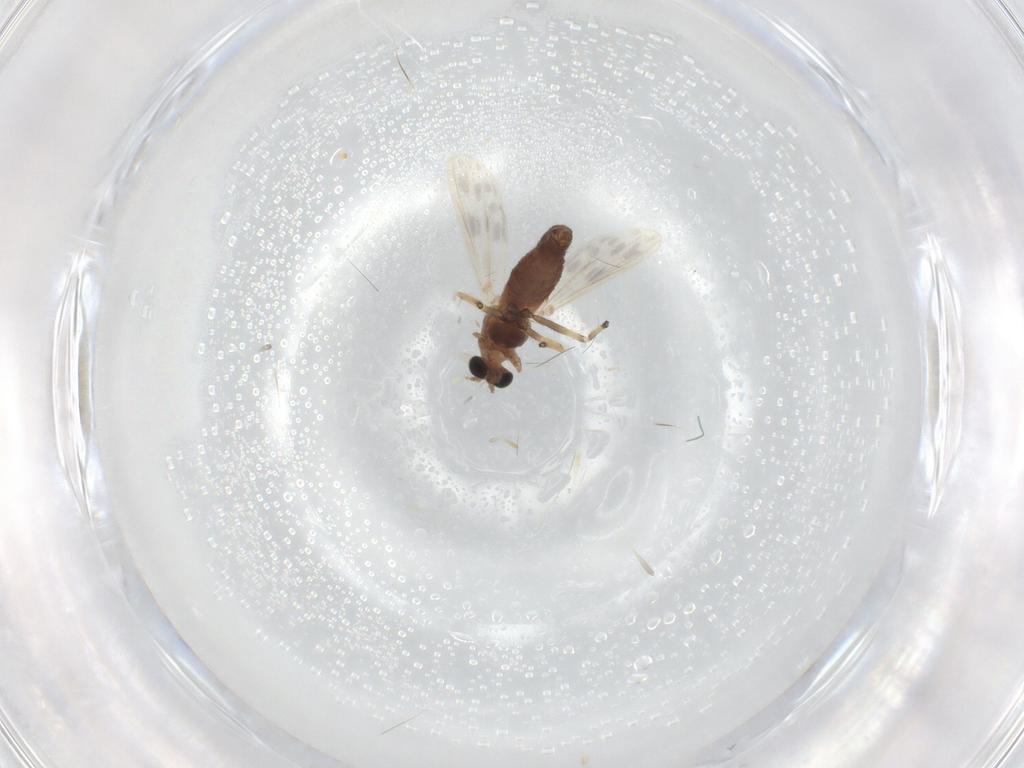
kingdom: Animalia
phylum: Arthropoda
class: Insecta
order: Diptera
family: Chironomidae
